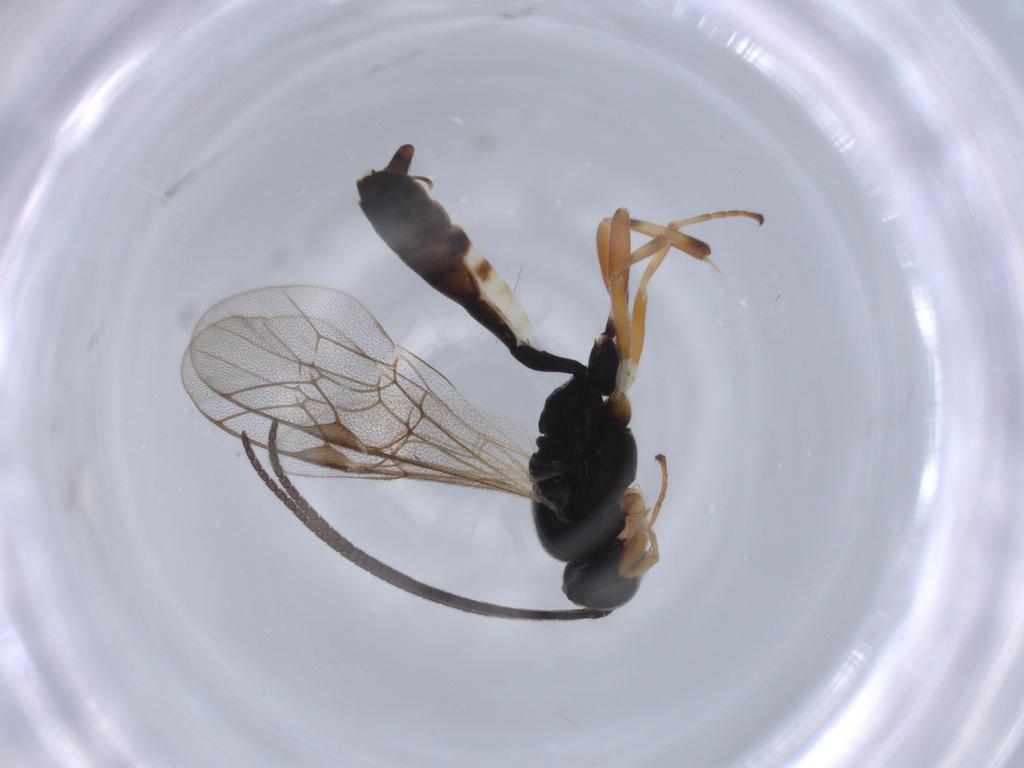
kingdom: Animalia
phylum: Arthropoda
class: Insecta
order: Hymenoptera
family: Ichneumonidae
